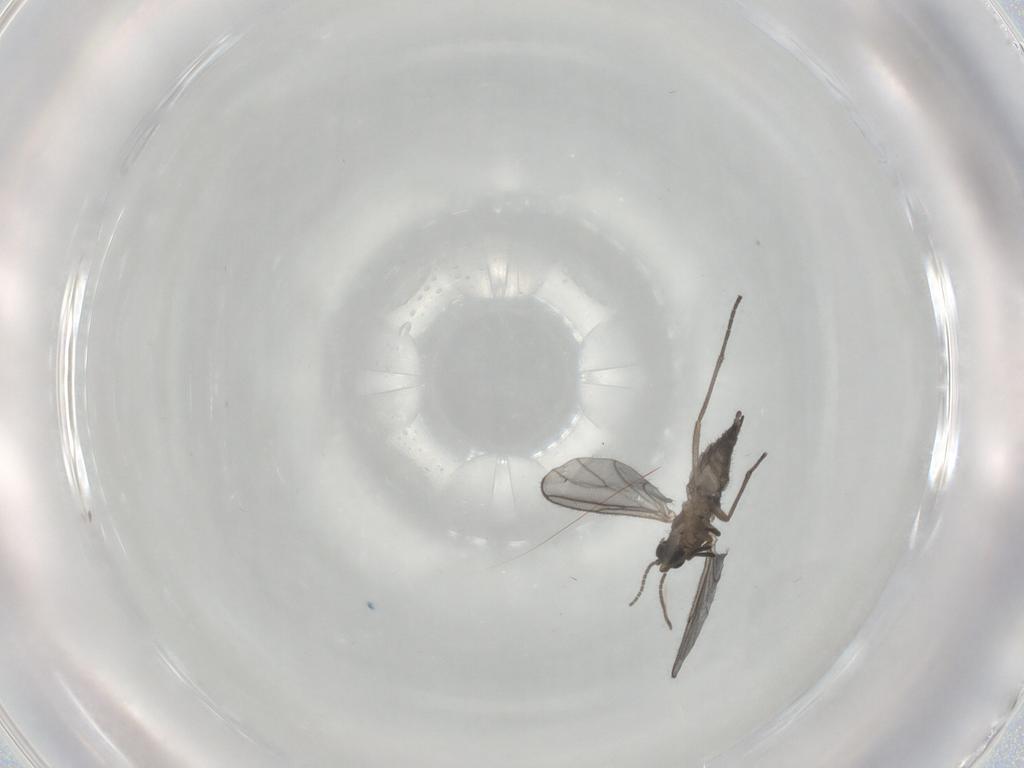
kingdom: Animalia
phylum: Arthropoda
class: Insecta
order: Diptera
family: Sciaridae
